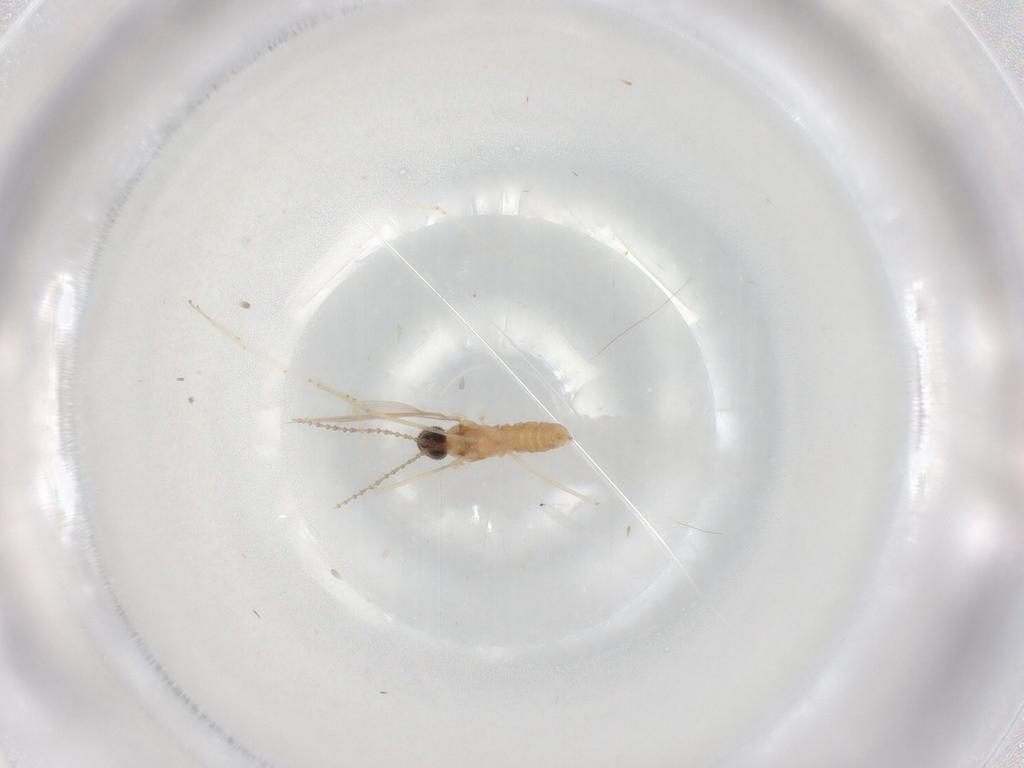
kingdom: Animalia
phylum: Arthropoda
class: Insecta
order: Diptera
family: Cecidomyiidae
